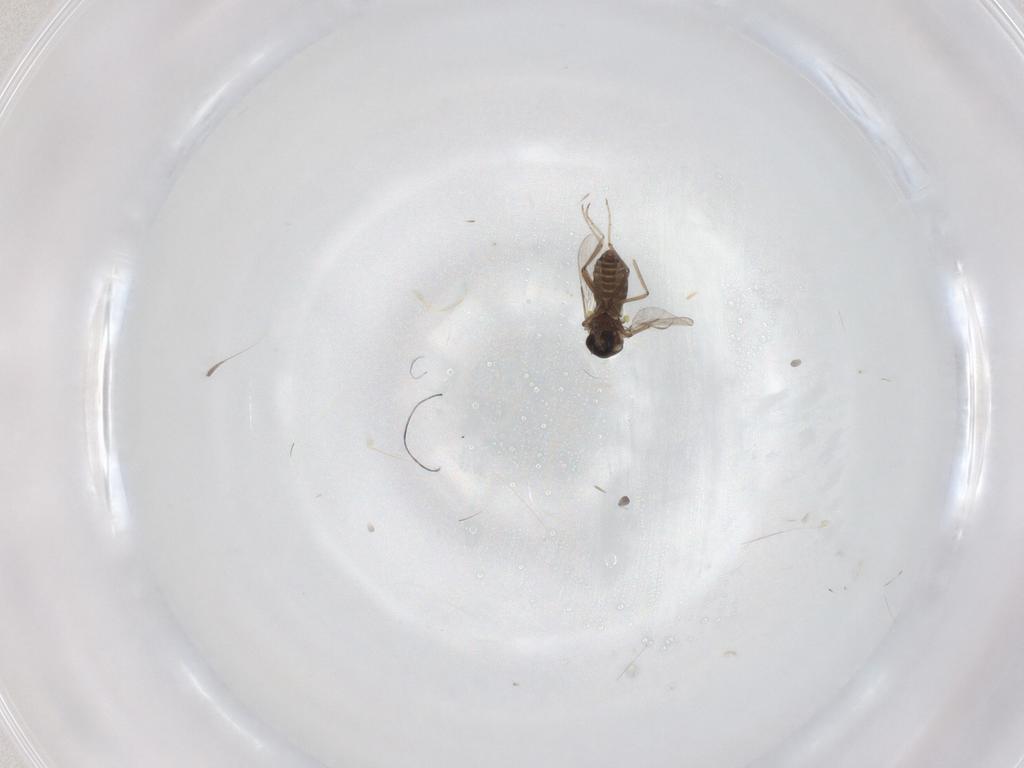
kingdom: Animalia
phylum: Arthropoda
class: Insecta
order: Diptera
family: Ceratopogonidae
